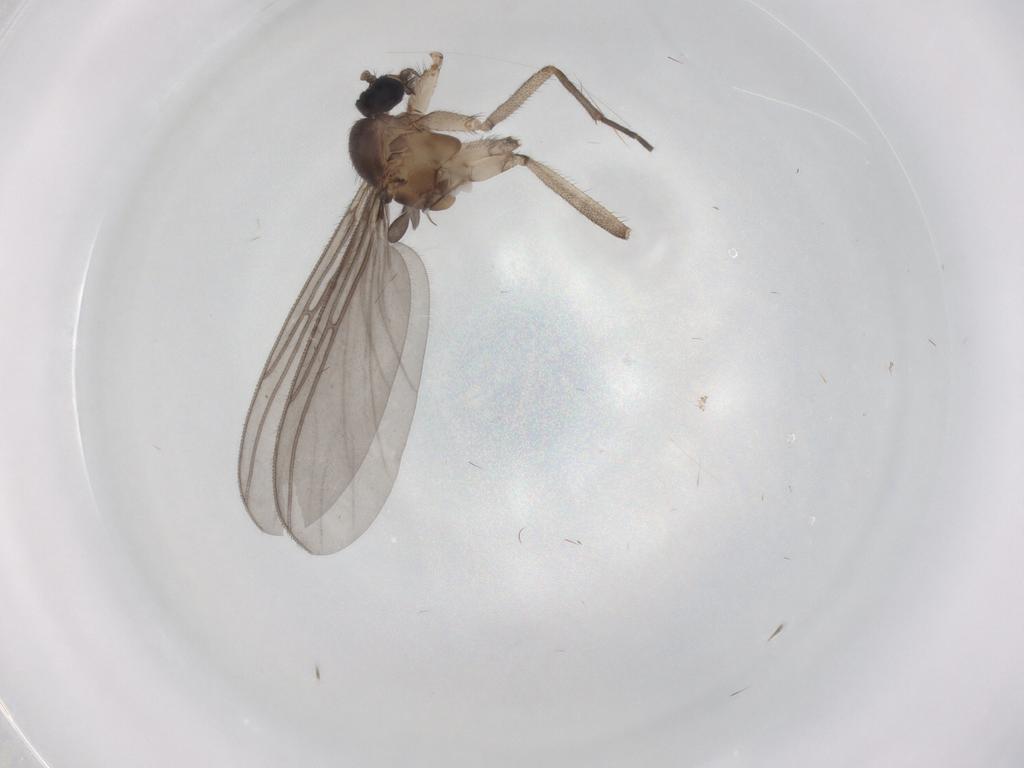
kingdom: Animalia
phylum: Arthropoda
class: Insecta
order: Diptera
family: Ceratopogonidae
